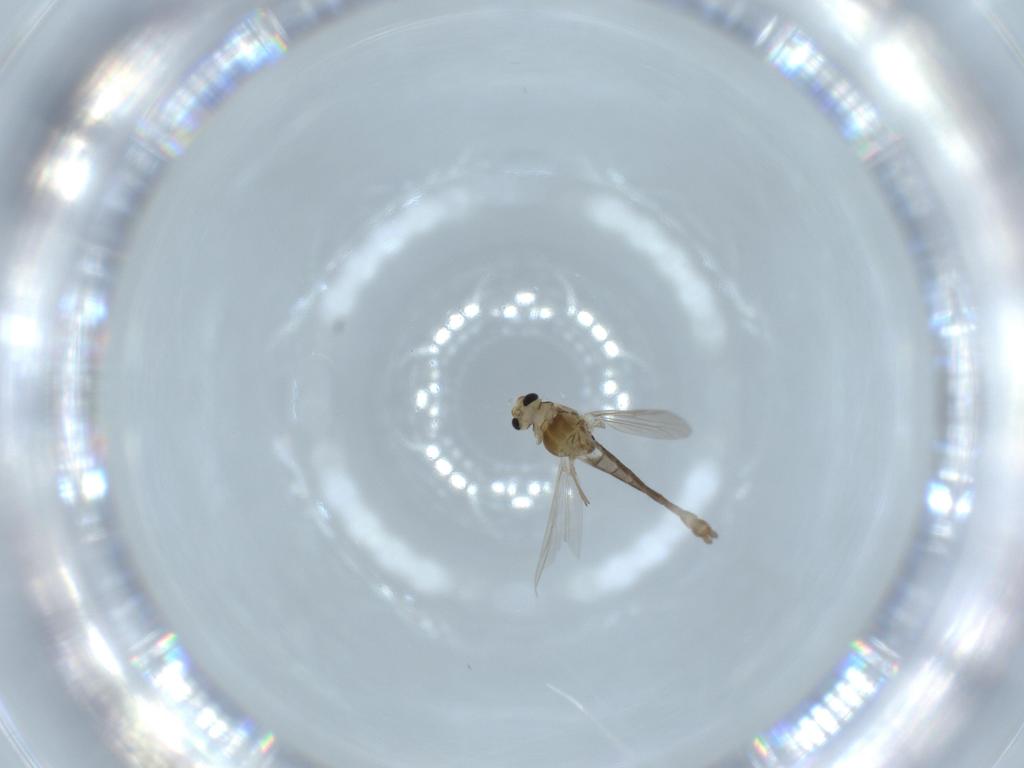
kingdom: Animalia
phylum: Arthropoda
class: Insecta
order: Diptera
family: Chironomidae
